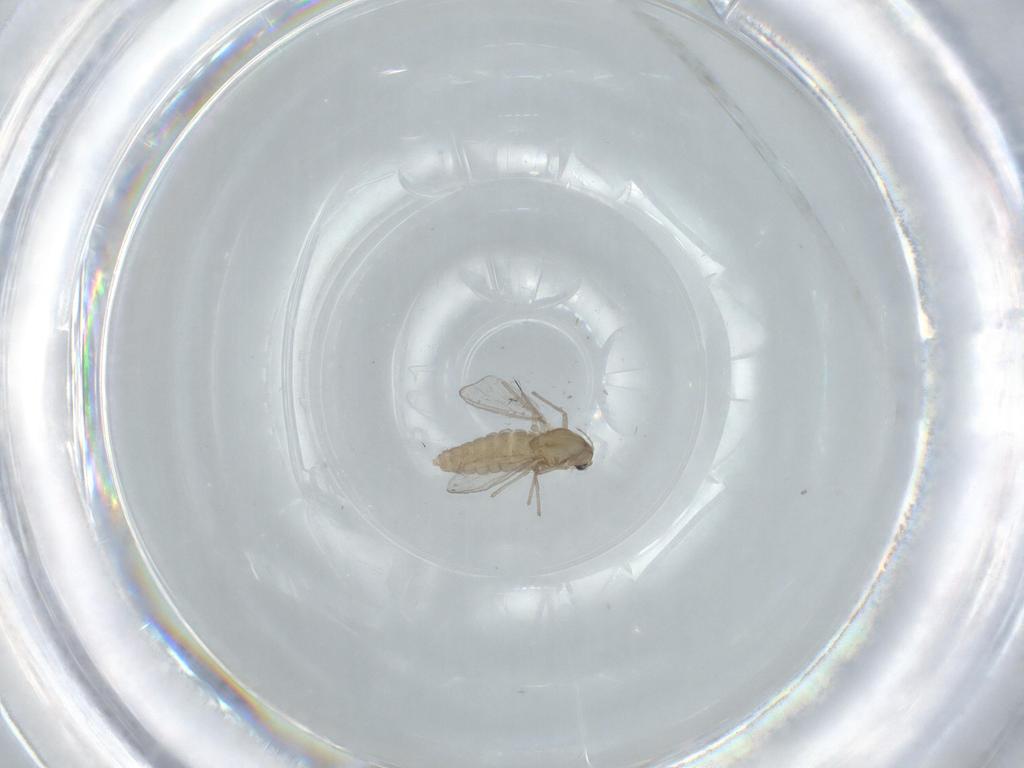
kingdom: Animalia
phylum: Arthropoda
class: Insecta
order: Diptera
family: Chironomidae
